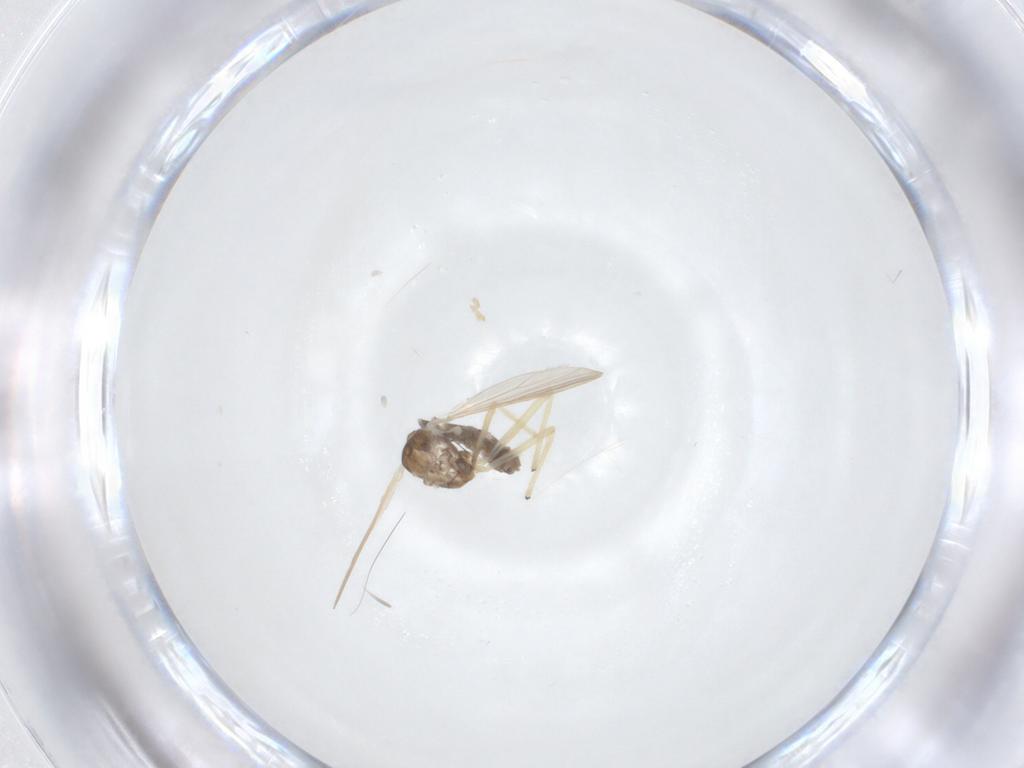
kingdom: Animalia
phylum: Arthropoda
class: Insecta
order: Diptera
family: Chironomidae
